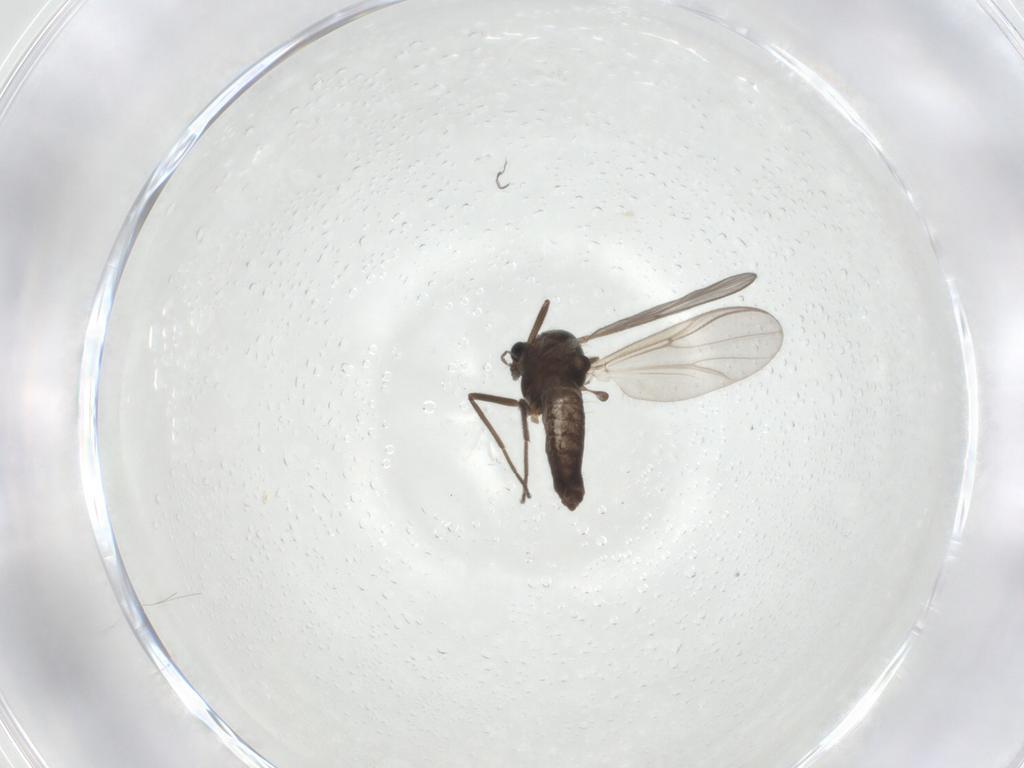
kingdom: Animalia
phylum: Arthropoda
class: Insecta
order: Diptera
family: Chironomidae
